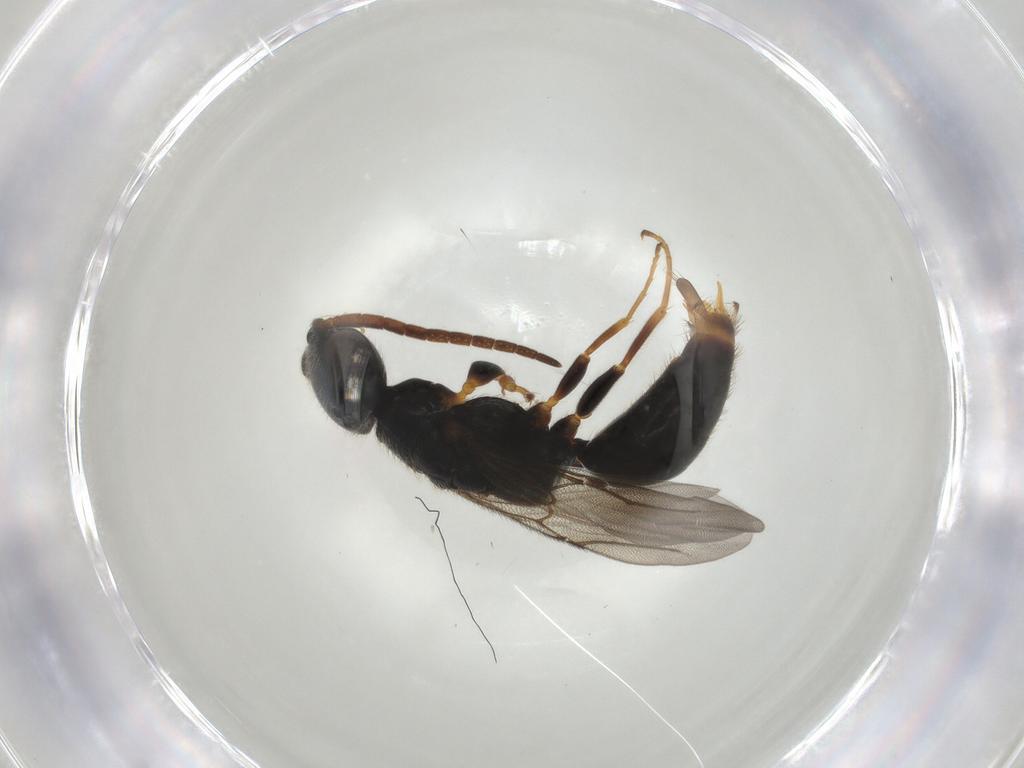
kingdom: Animalia
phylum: Arthropoda
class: Insecta
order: Hymenoptera
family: Bethylidae
